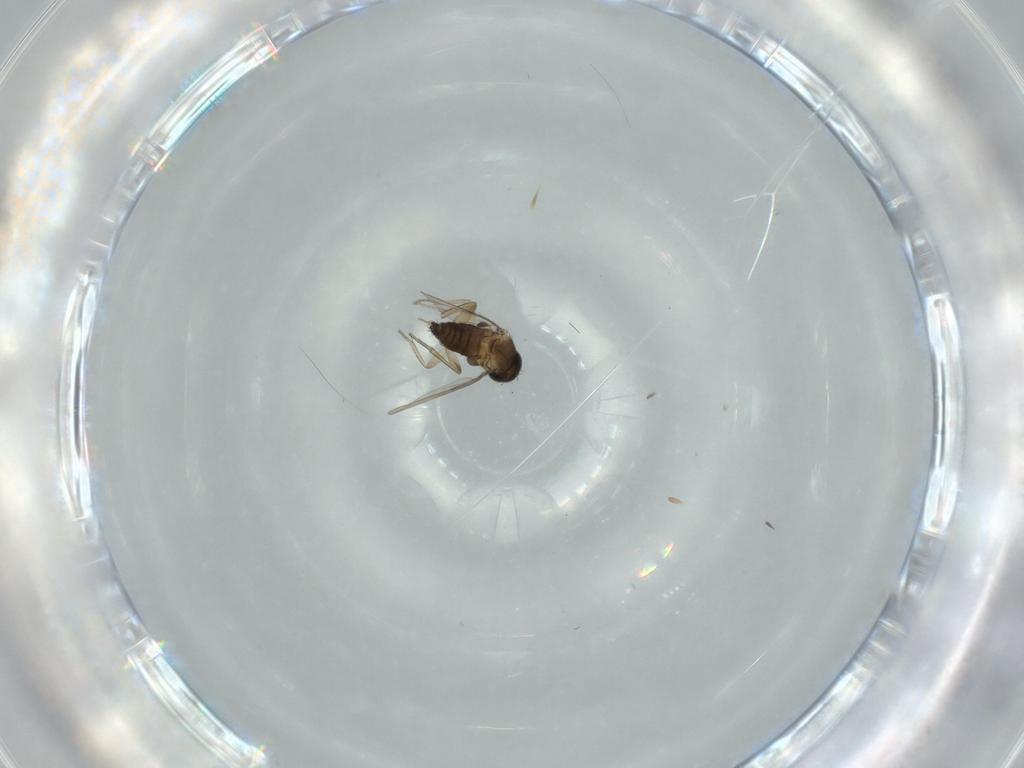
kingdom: Animalia
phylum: Arthropoda
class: Insecta
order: Diptera
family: Phoridae
